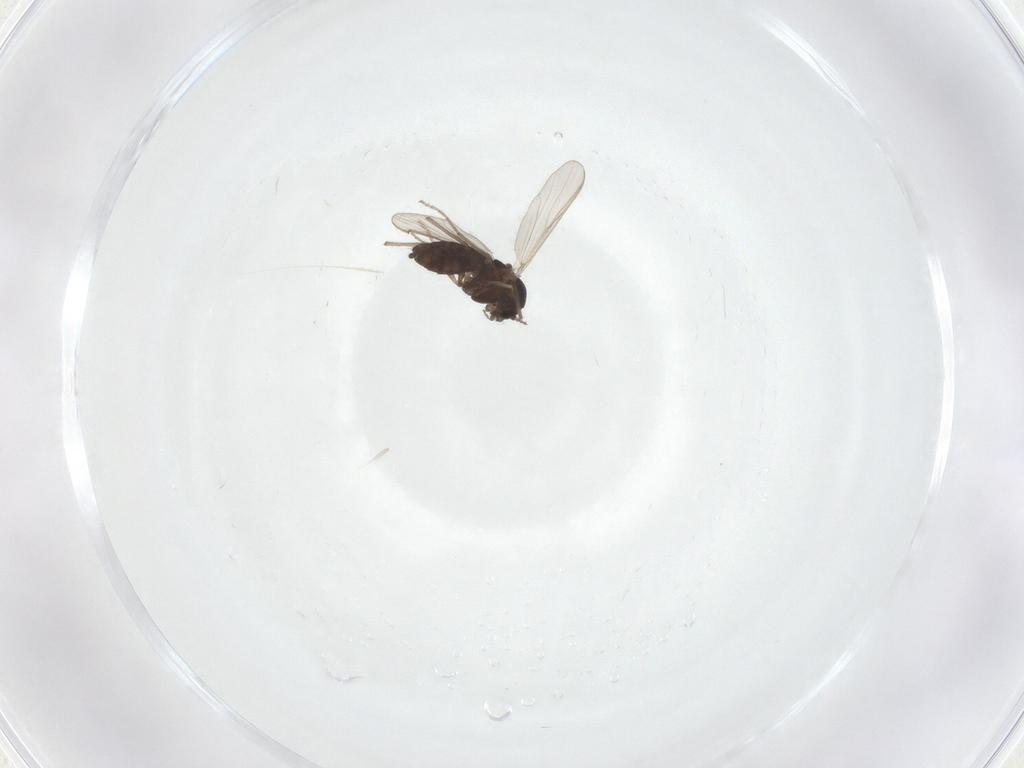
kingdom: Animalia
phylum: Arthropoda
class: Insecta
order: Diptera
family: Chironomidae
